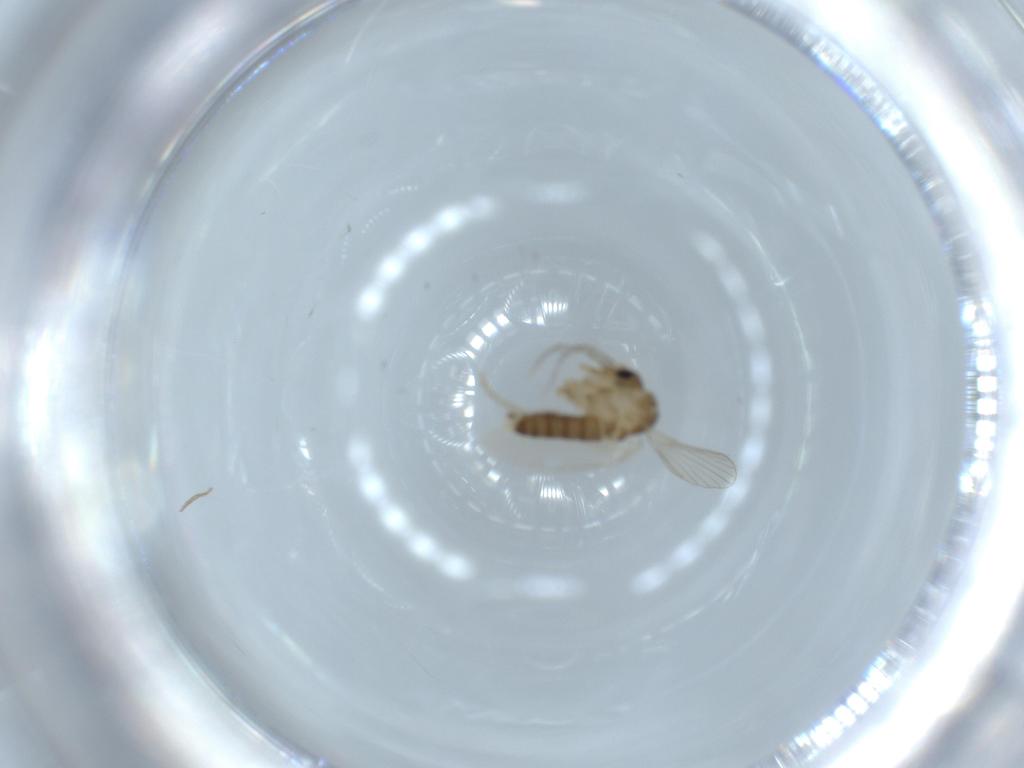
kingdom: Animalia
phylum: Arthropoda
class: Insecta
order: Diptera
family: Psychodidae
